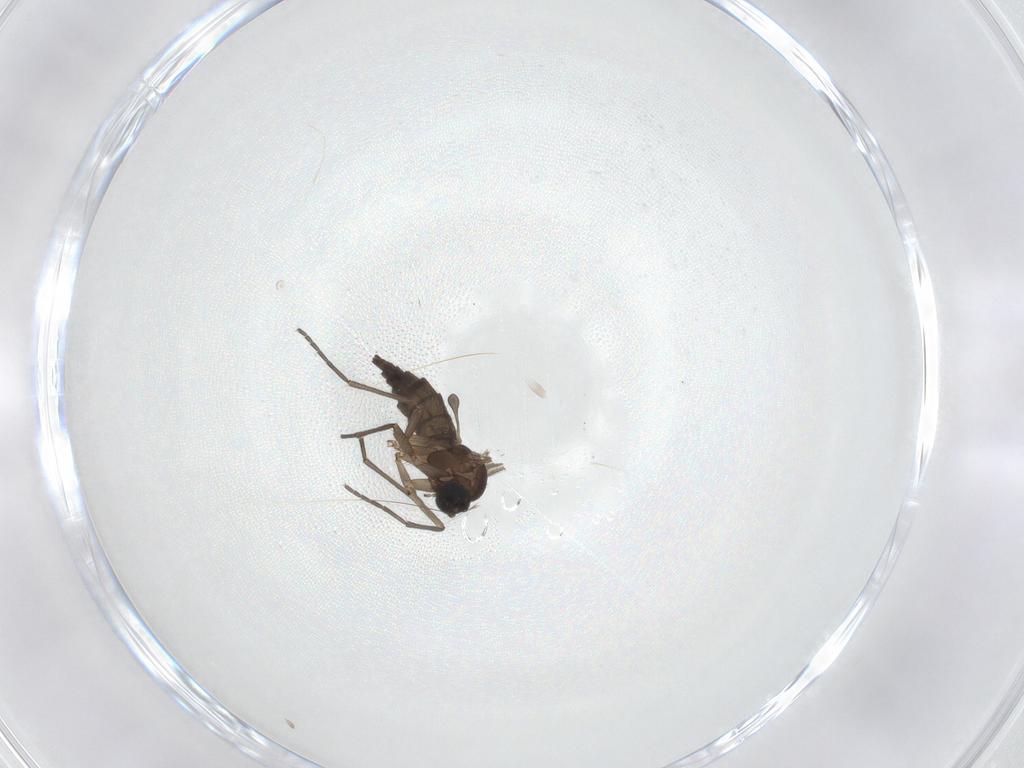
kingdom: Animalia
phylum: Arthropoda
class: Insecta
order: Diptera
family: Sciaridae
